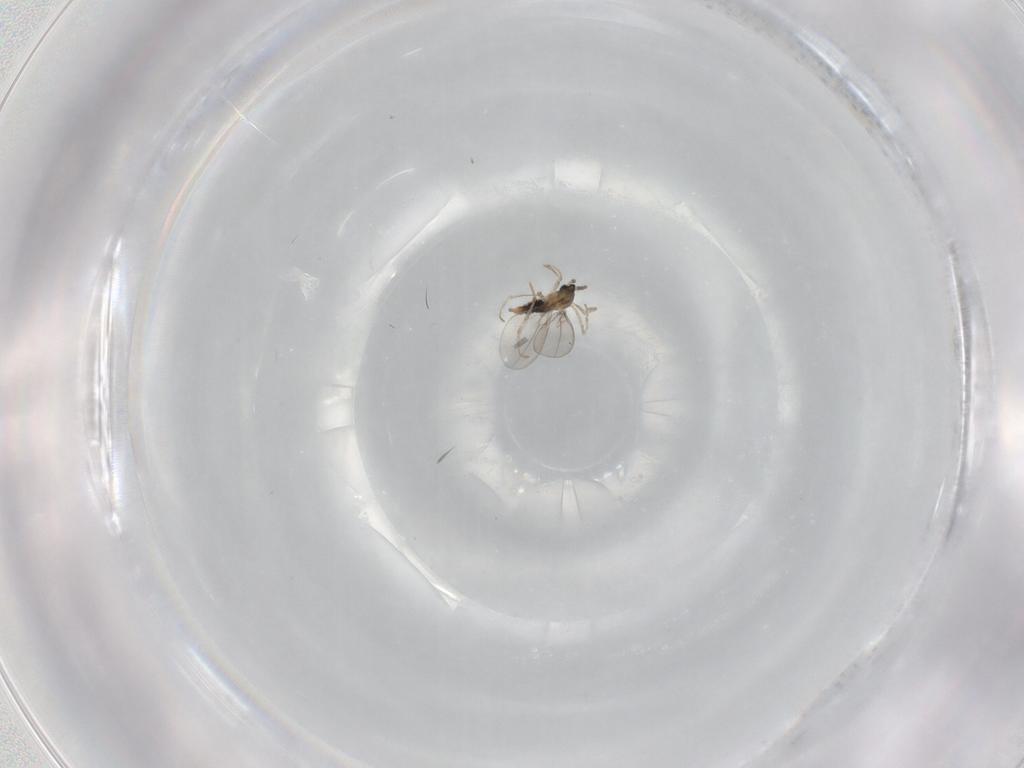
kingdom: Animalia
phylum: Arthropoda
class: Insecta
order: Diptera
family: Cecidomyiidae
